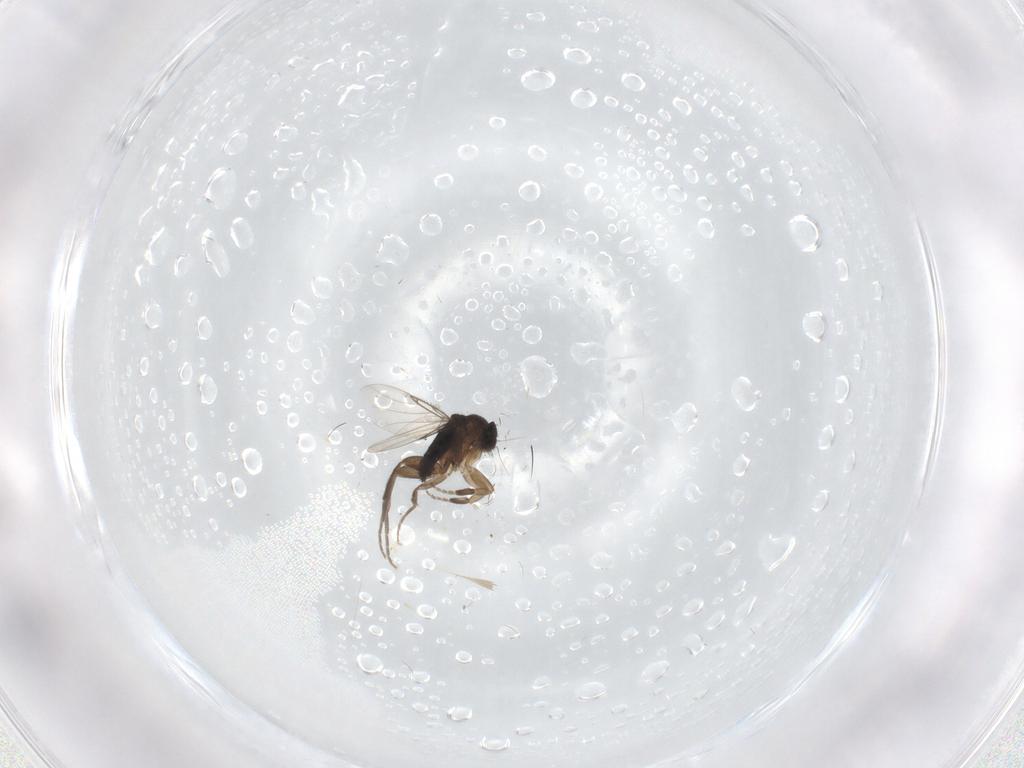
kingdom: Animalia
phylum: Arthropoda
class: Insecta
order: Diptera
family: Phoridae
